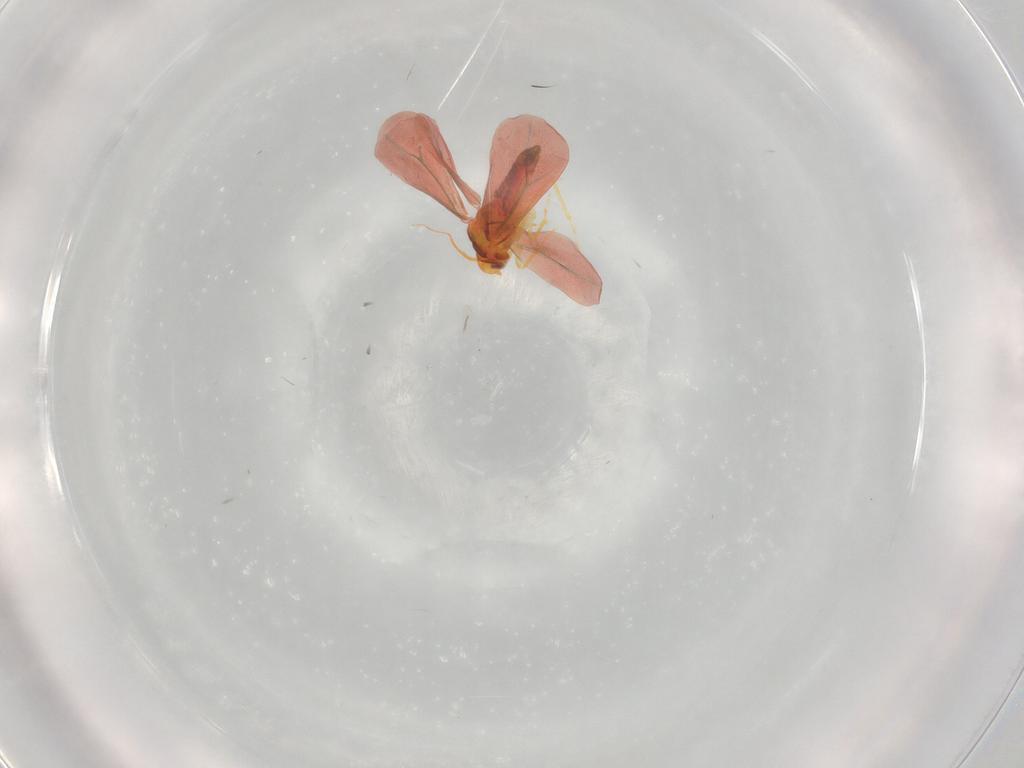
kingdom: Animalia
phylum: Arthropoda
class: Insecta
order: Hemiptera
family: Aleyrodidae
